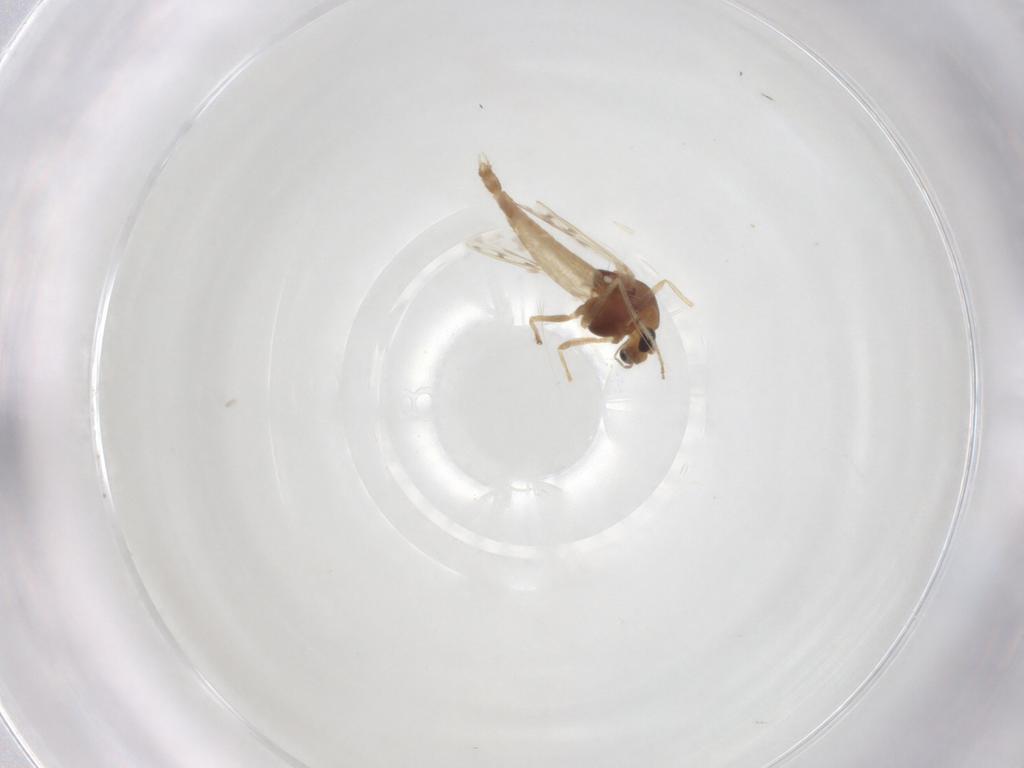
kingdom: Animalia
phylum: Arthropoda
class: Insecta
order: Diptera
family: Chironomidae
